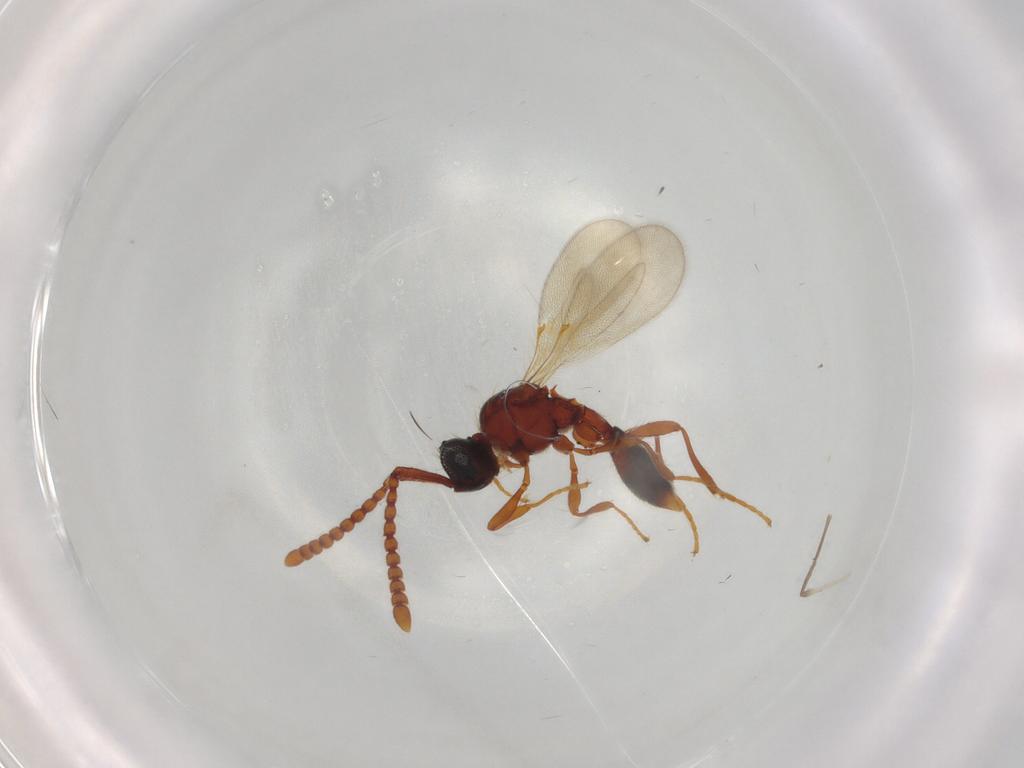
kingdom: Animalia
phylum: Arthropoda
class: Insecta
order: Hymenoptera
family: Diapriidae
